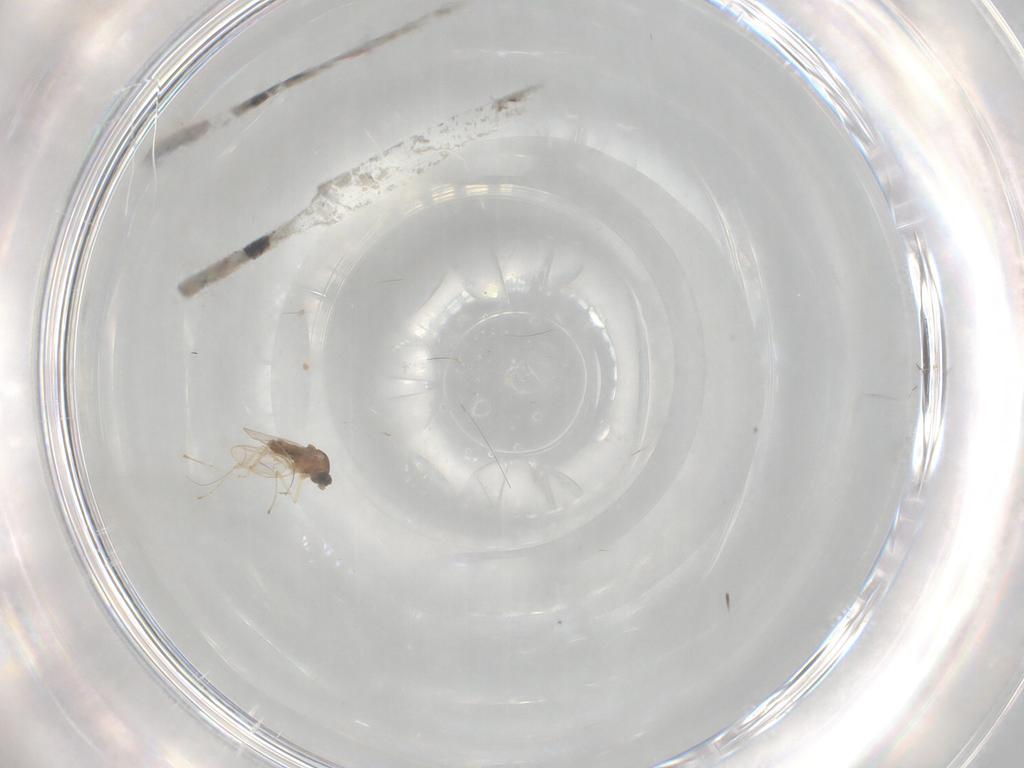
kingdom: Animalia
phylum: Arthropoda
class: Insecta
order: Diptera
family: Cecidomyiidae
